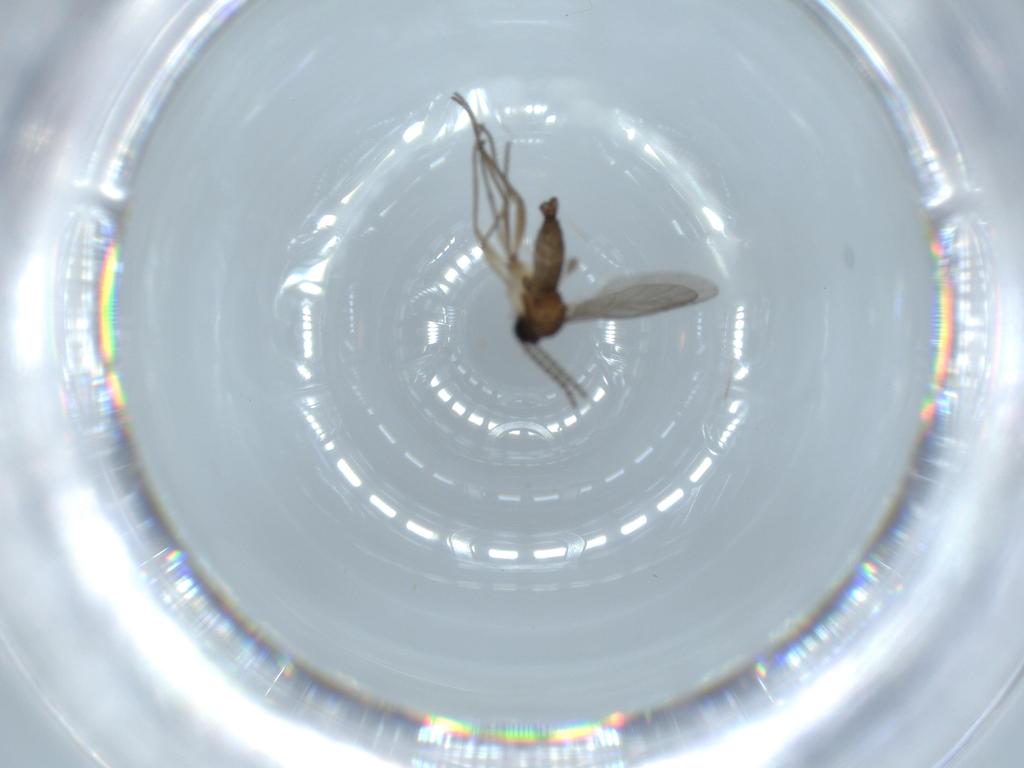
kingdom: Animalia
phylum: Arthropoda
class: Insecta
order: Diptera
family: Sciaridae
